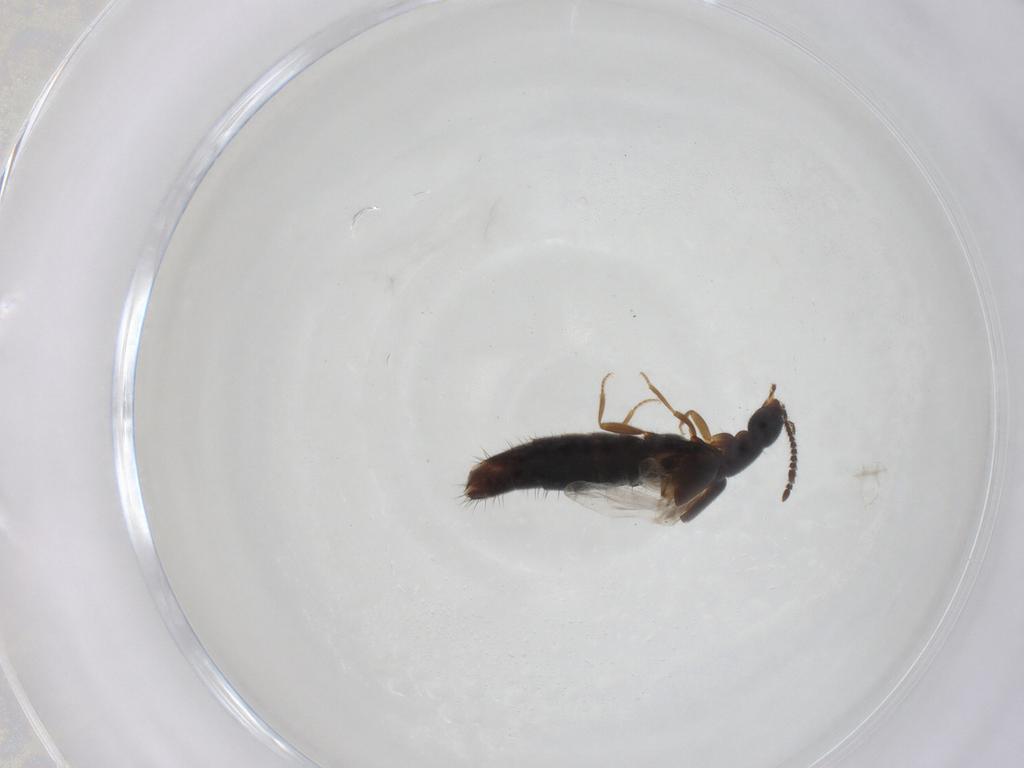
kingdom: Animalia
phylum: Arthropoda
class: Insecta
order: Coleoptera
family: Staphylinidae
